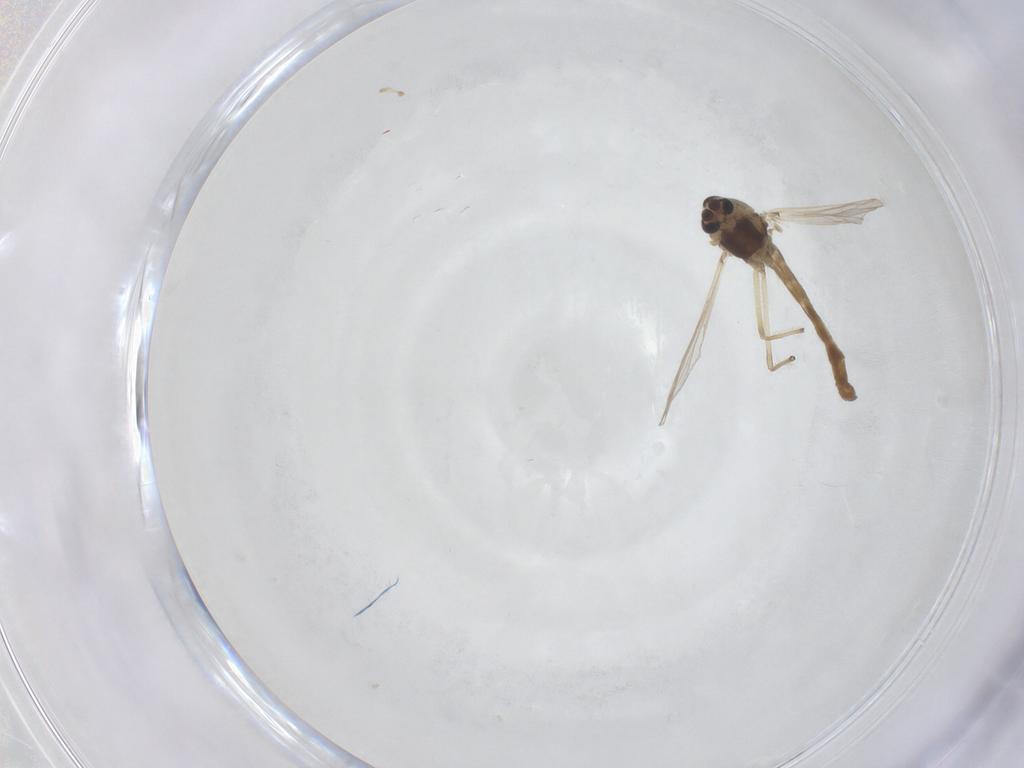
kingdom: Animalia
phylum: Arthropoda
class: Insecta
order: Diptera
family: Chironomidae
